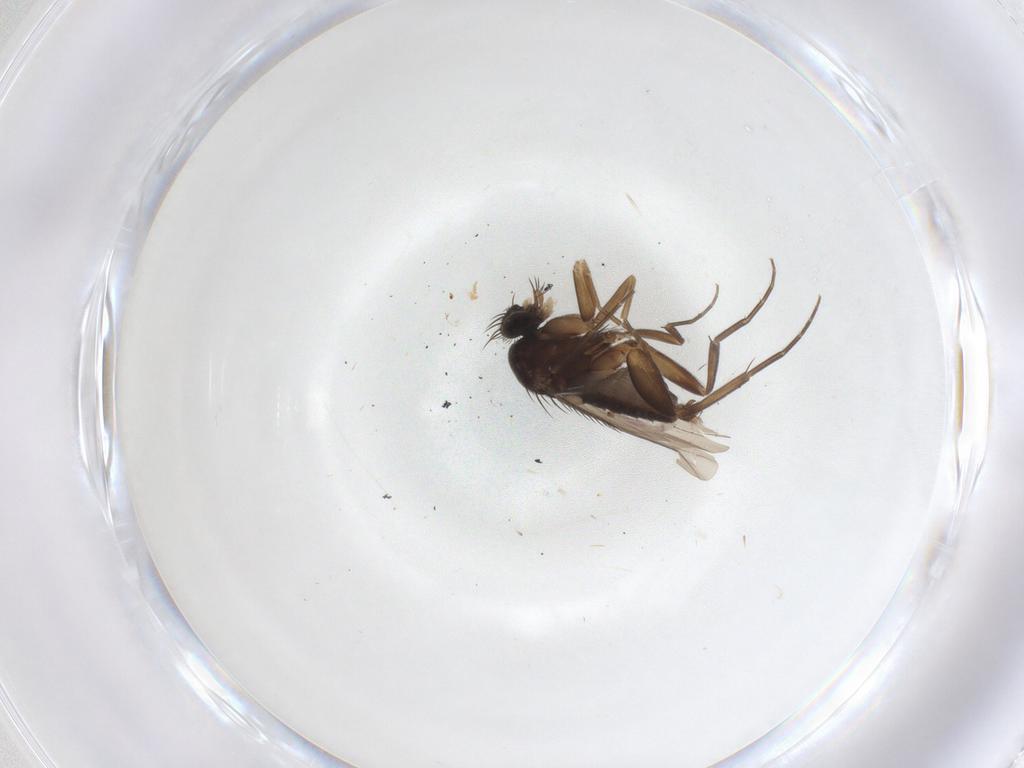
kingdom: Animalia
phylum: Arthropoda
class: Insecta
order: Diptera
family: Phoridae
